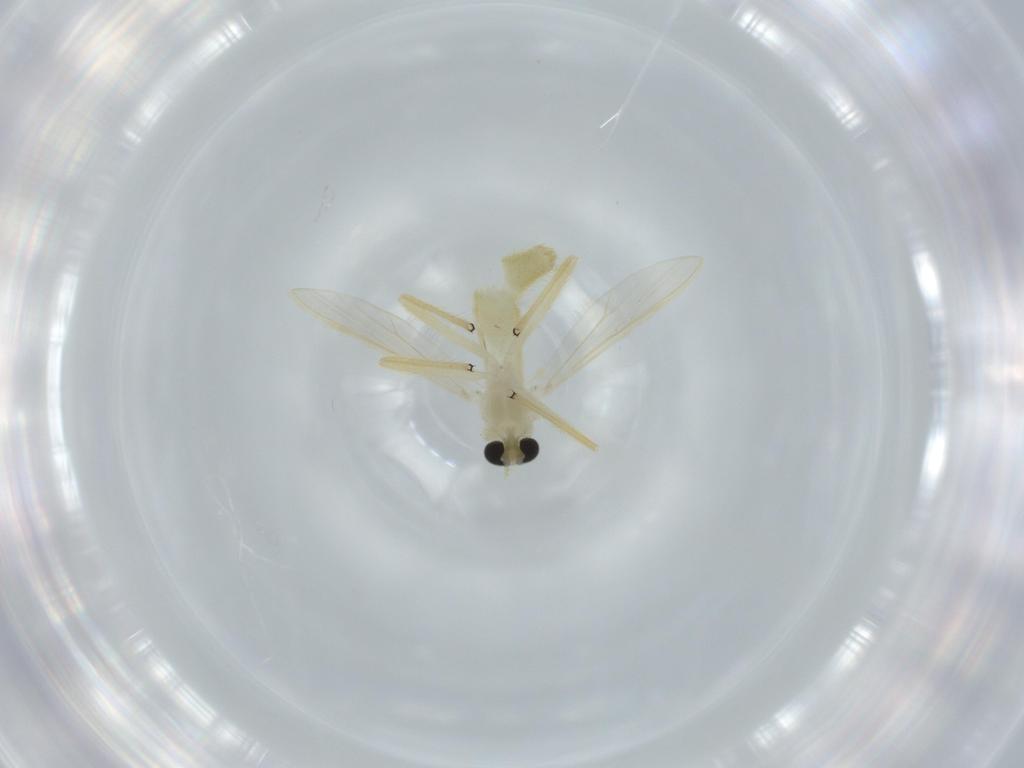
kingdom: Animalia
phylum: Arthropoda
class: Insecta
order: Diptera
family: Chironomidae
